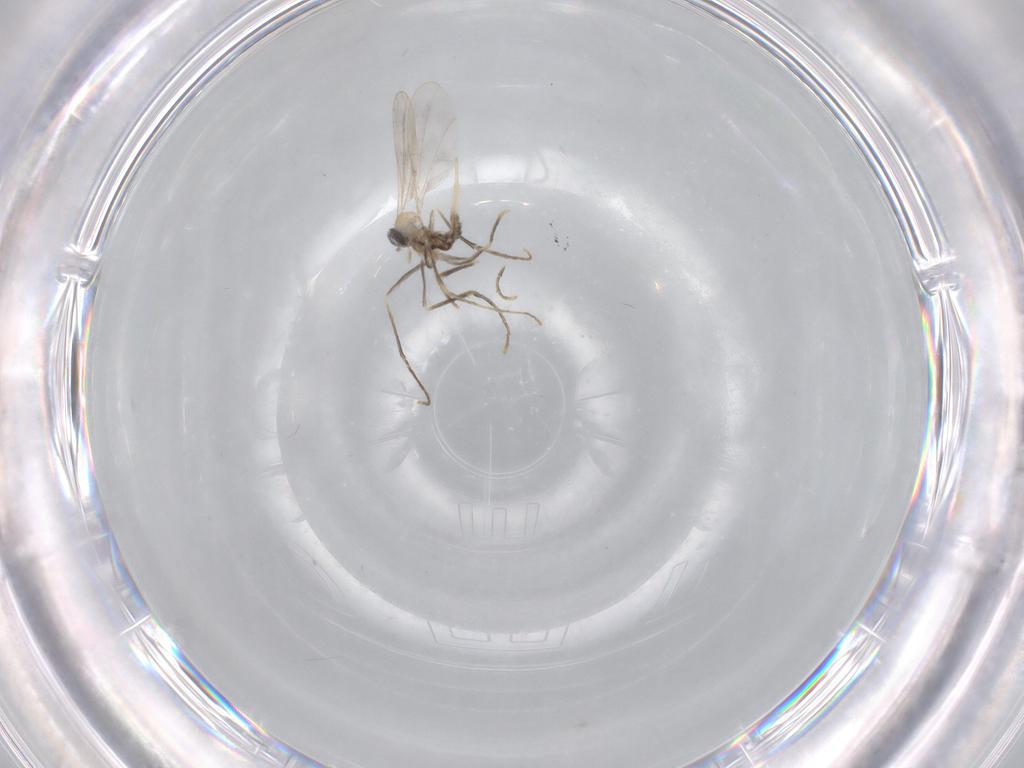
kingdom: Animalia
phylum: Arthropoda
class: Insecta
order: Diptera
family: Cecidomyiidae
